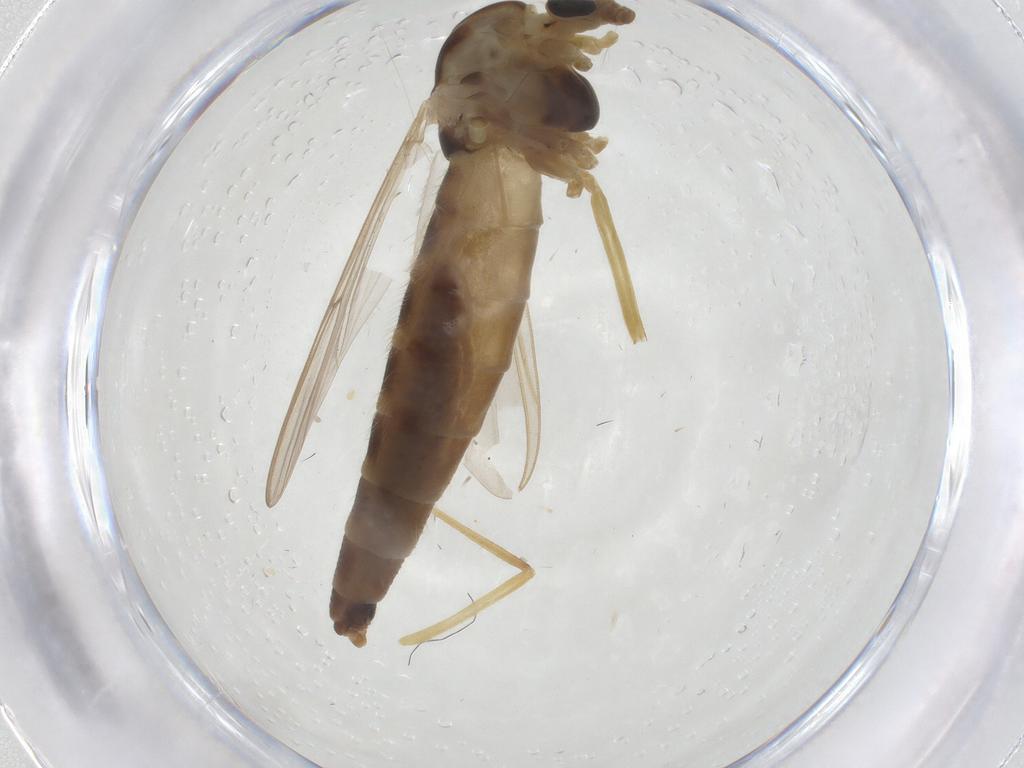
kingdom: Animalia
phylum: Arthropoda
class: Insecta
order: Diptera
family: Chironomidae
